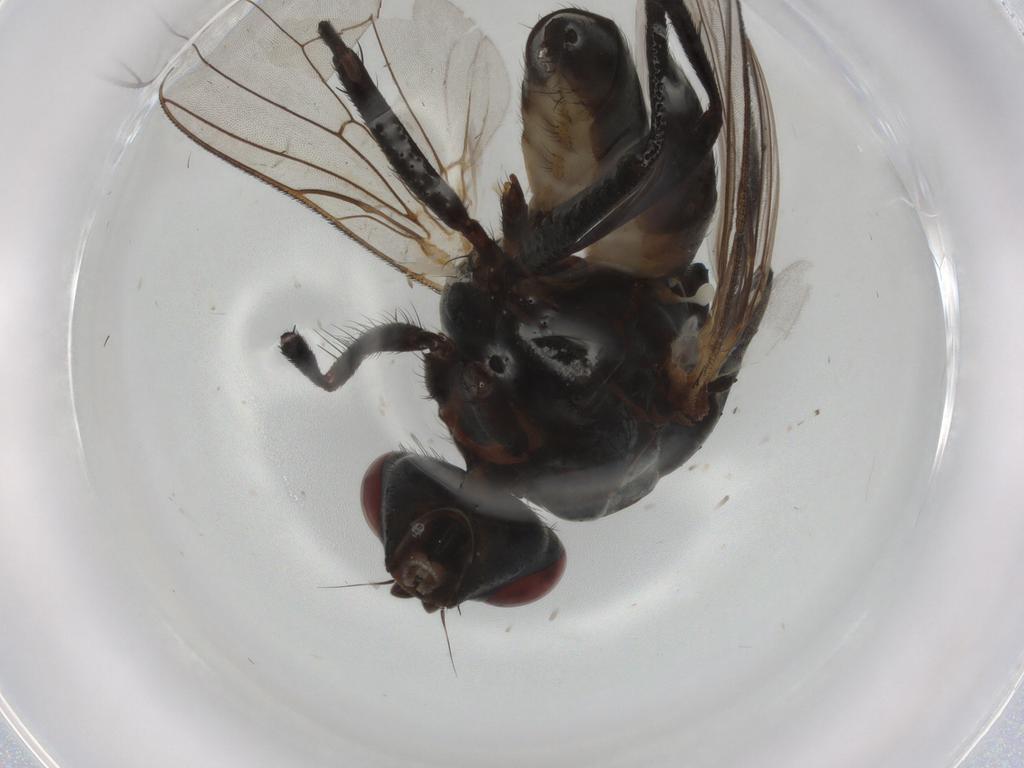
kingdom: Animalia
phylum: Arthropoda
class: Insecta
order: Diptera
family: Anthomyiidae
